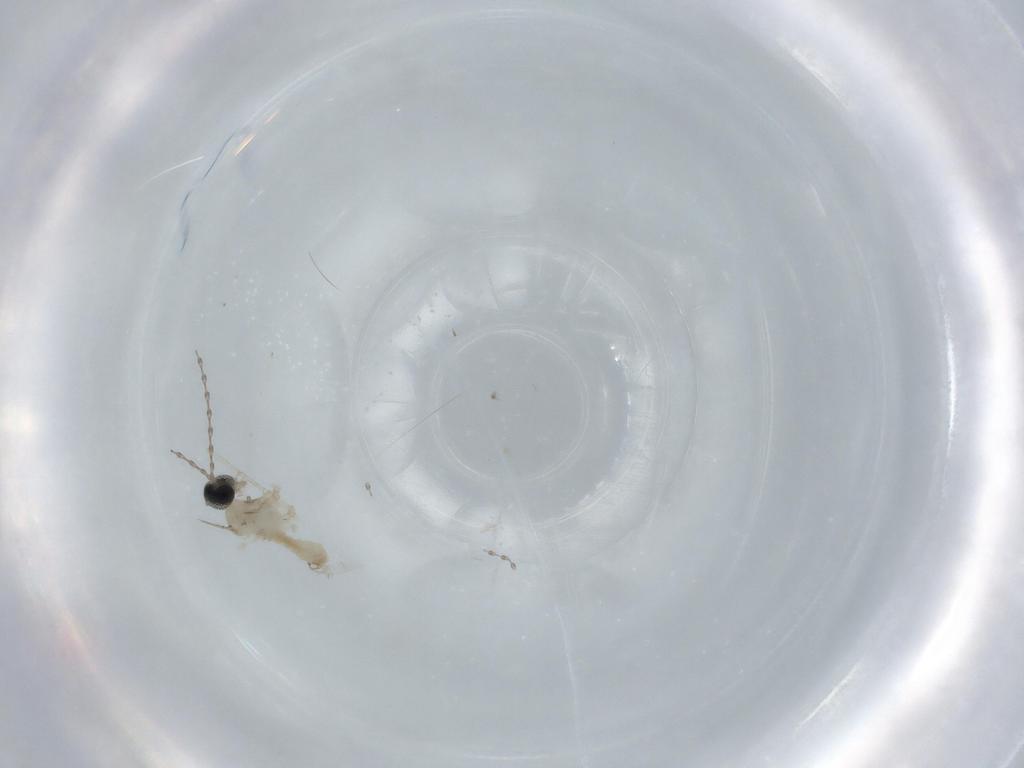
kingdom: Animalia
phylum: Arthropoda
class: Insecta
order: Diptera
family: Cecidomyiidae
